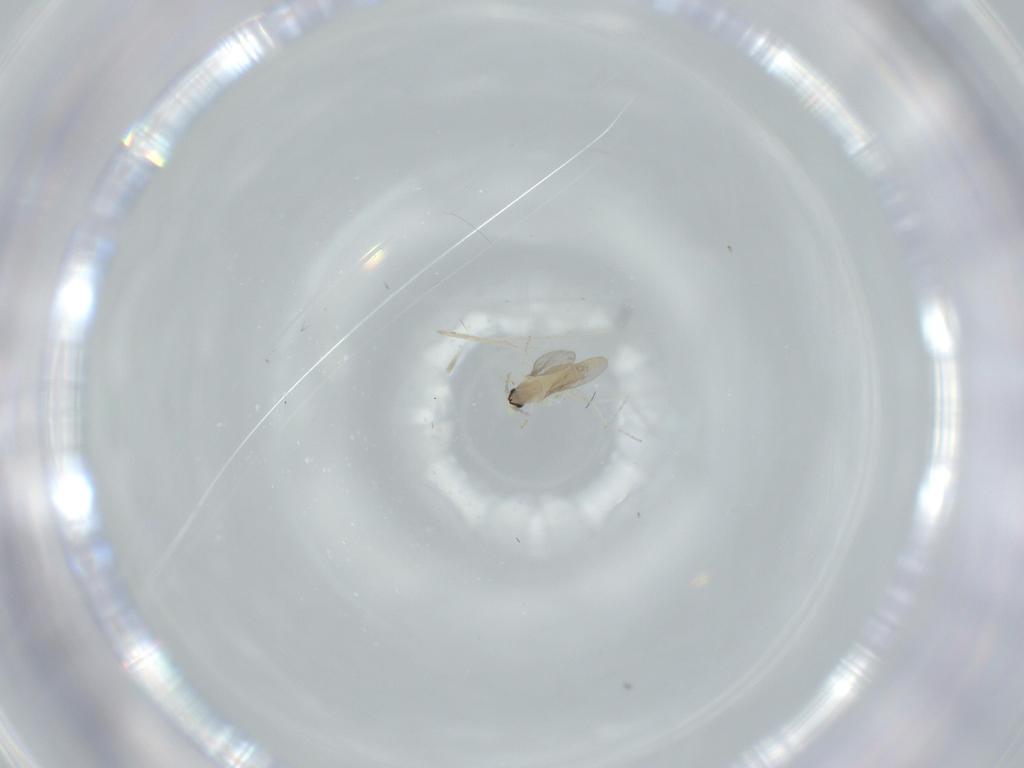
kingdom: Animalia
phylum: Arthropoda
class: Insecta
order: Diptera
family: Cecidomyiidae
